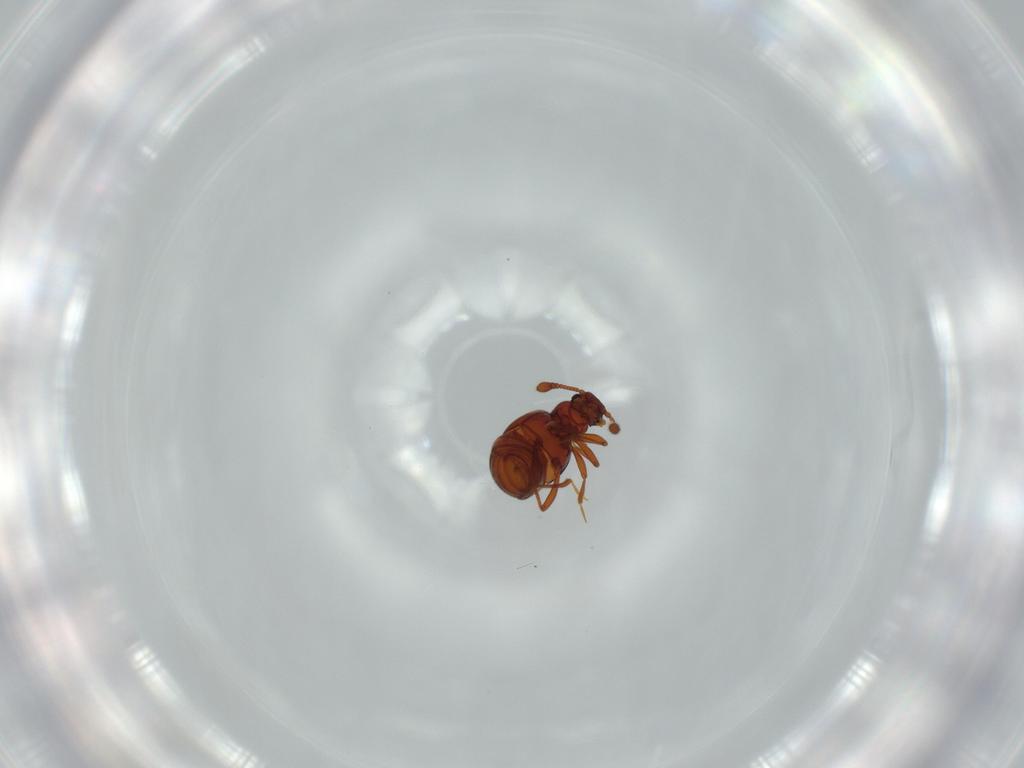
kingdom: Animalia
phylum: Arthropoda
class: Insecta
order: Coleoptera
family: Staphylinidae
